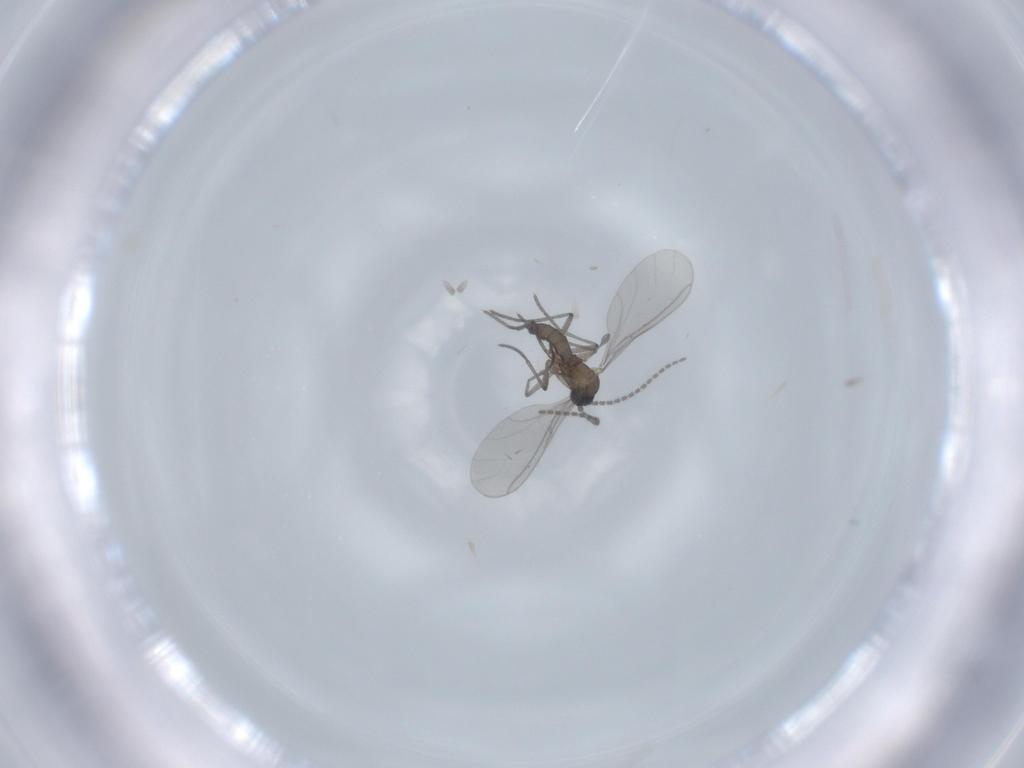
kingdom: Animalia
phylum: Arthropoda
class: Insecta
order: Diptera
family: Sciaridae
